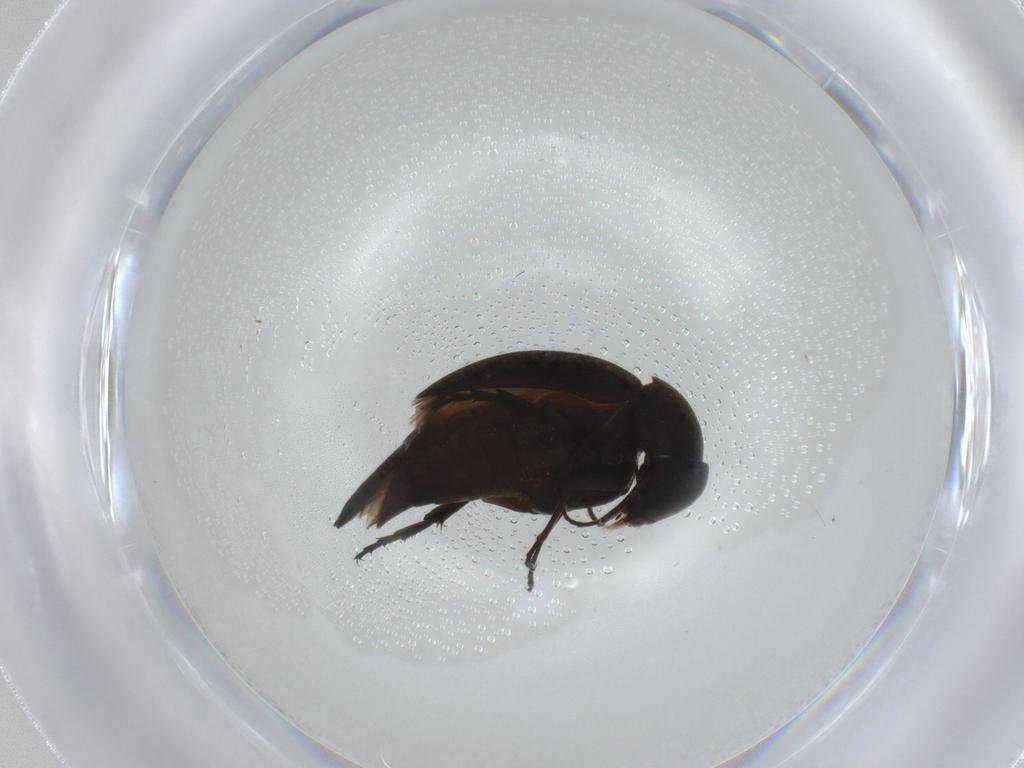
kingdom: Animalia
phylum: Arthropoda
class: Insecta
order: Coleoptera
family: Mordellidae
